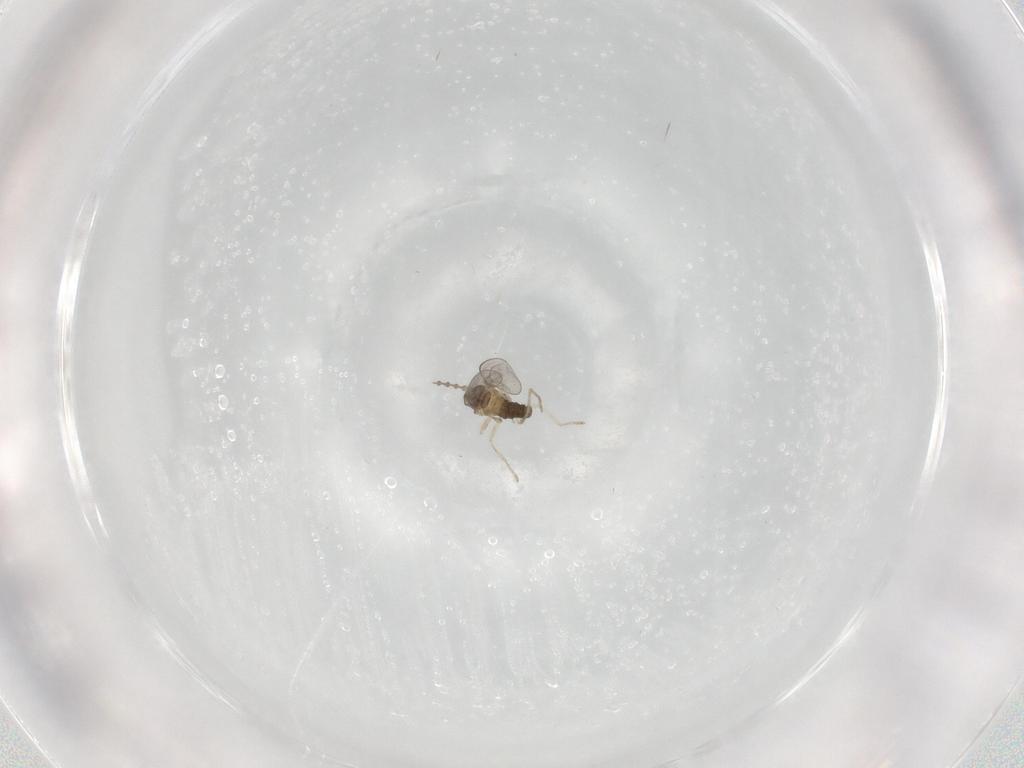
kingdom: Animalia
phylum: Arthropoda
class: Insecta
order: Diptera
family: Cecidomyiidae
